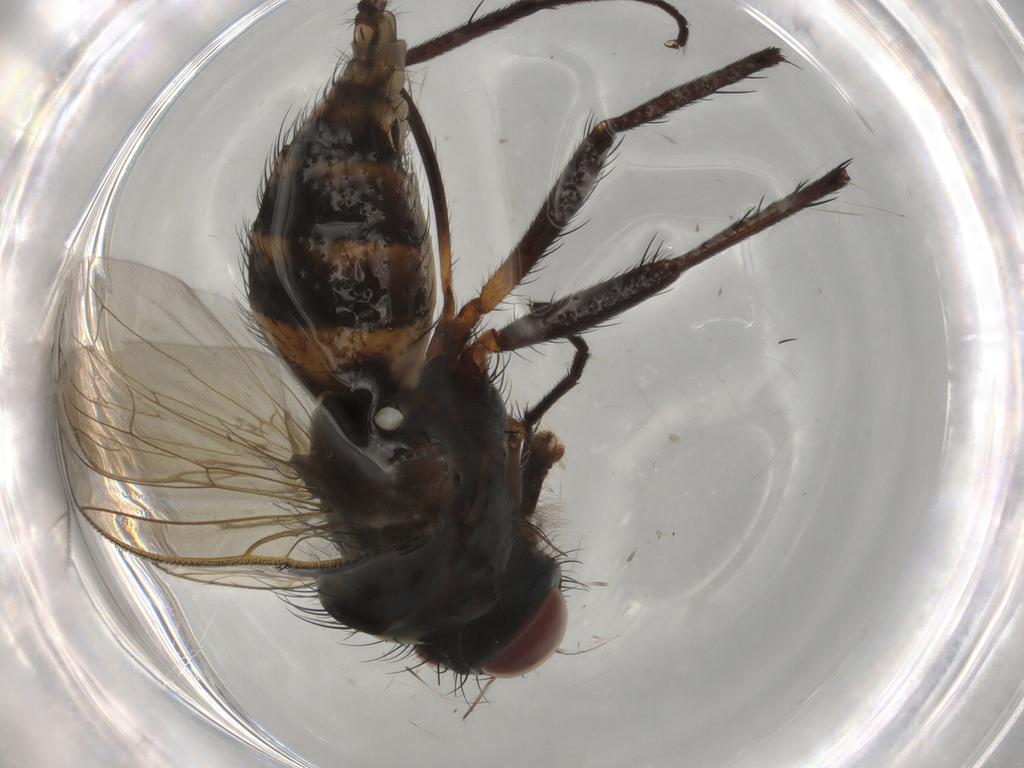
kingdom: Animalia
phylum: Arthropoda
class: Insecta
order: Diptera
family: Hybotidae
